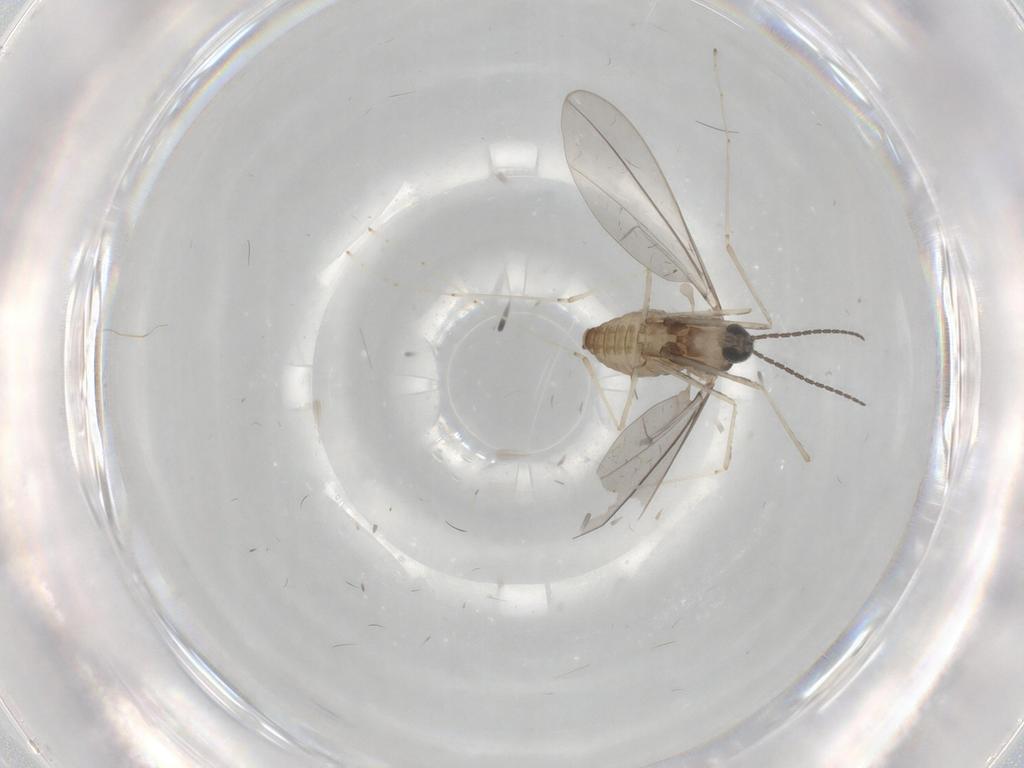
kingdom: Animalia
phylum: Arthropoda
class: Insecta
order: Diptera
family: Cecidomyiidae
